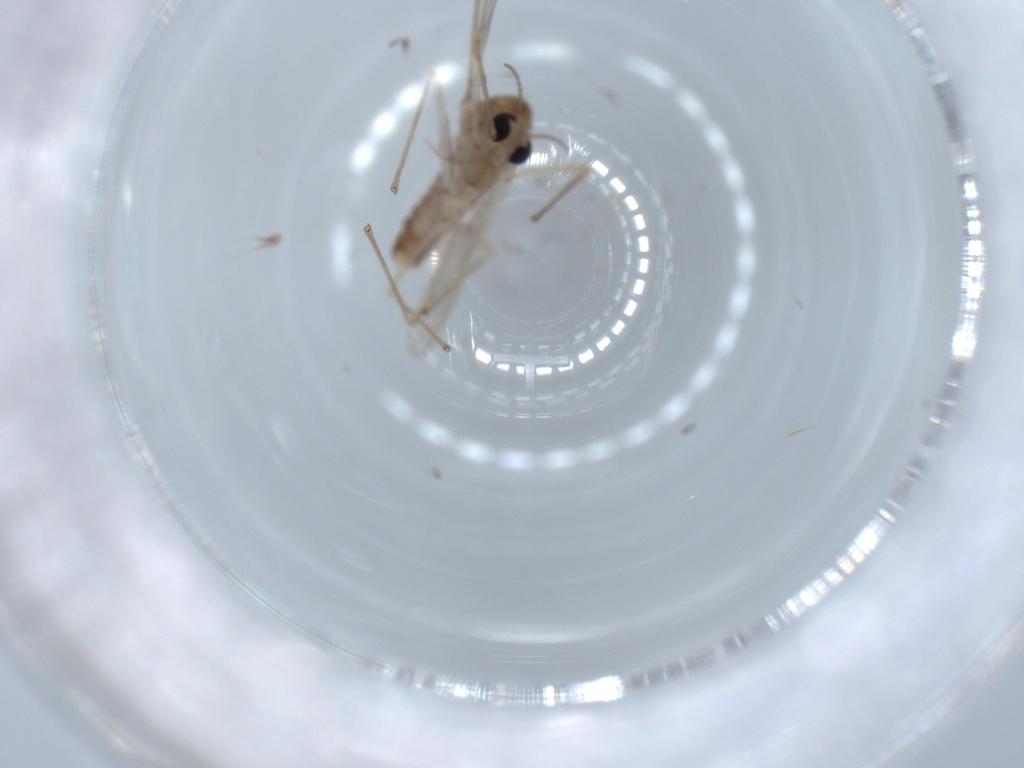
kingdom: Animalia
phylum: Arthropoda
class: Insecta
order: Diptera
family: Chironomidae
